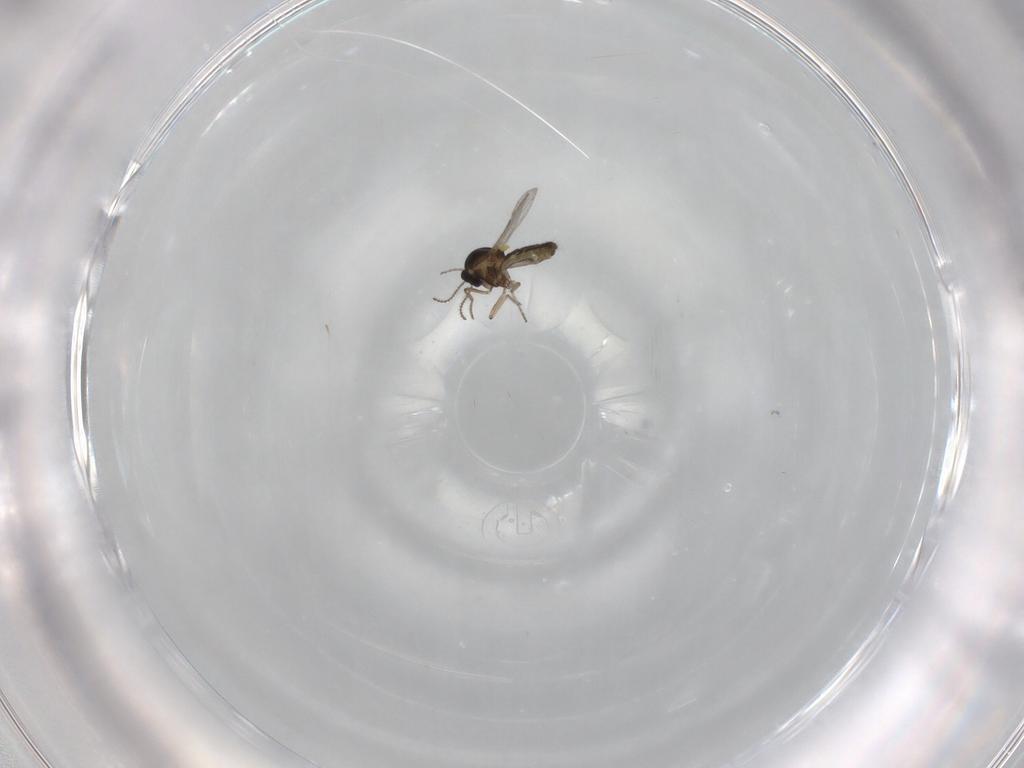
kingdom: Animalia
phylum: Arthropoda
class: Insecta
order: Diptera
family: Ceratopogonidae
